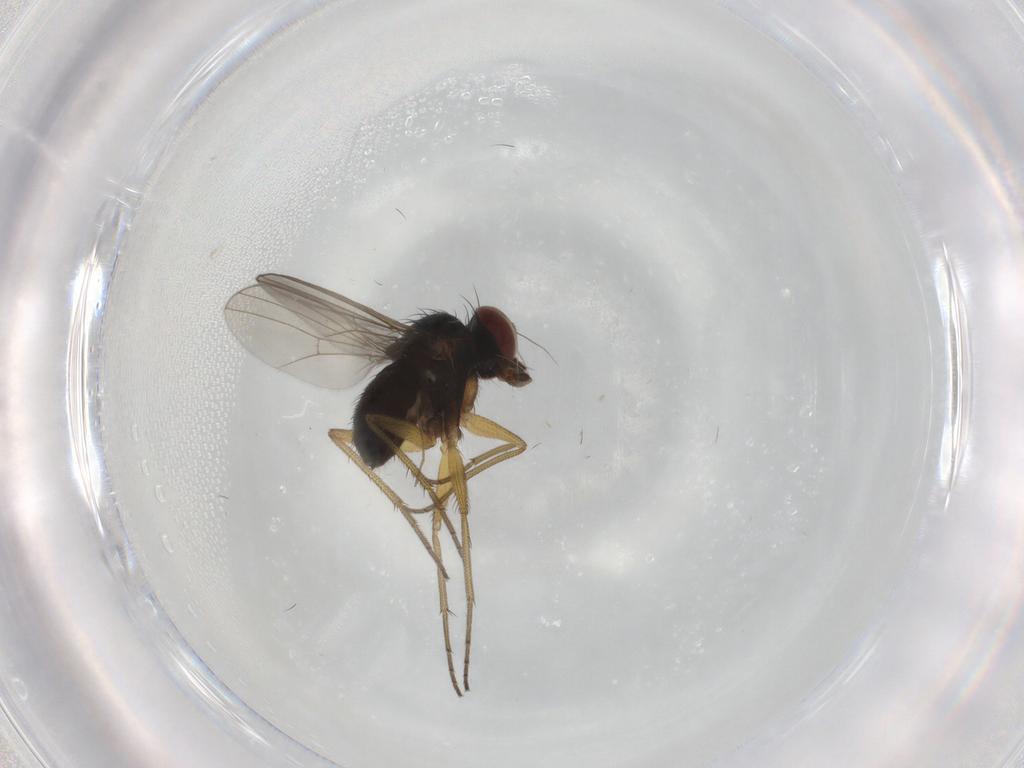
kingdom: Animalia
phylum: Arthropoda
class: Insecta
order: Diptera
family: Dolichopodidae
